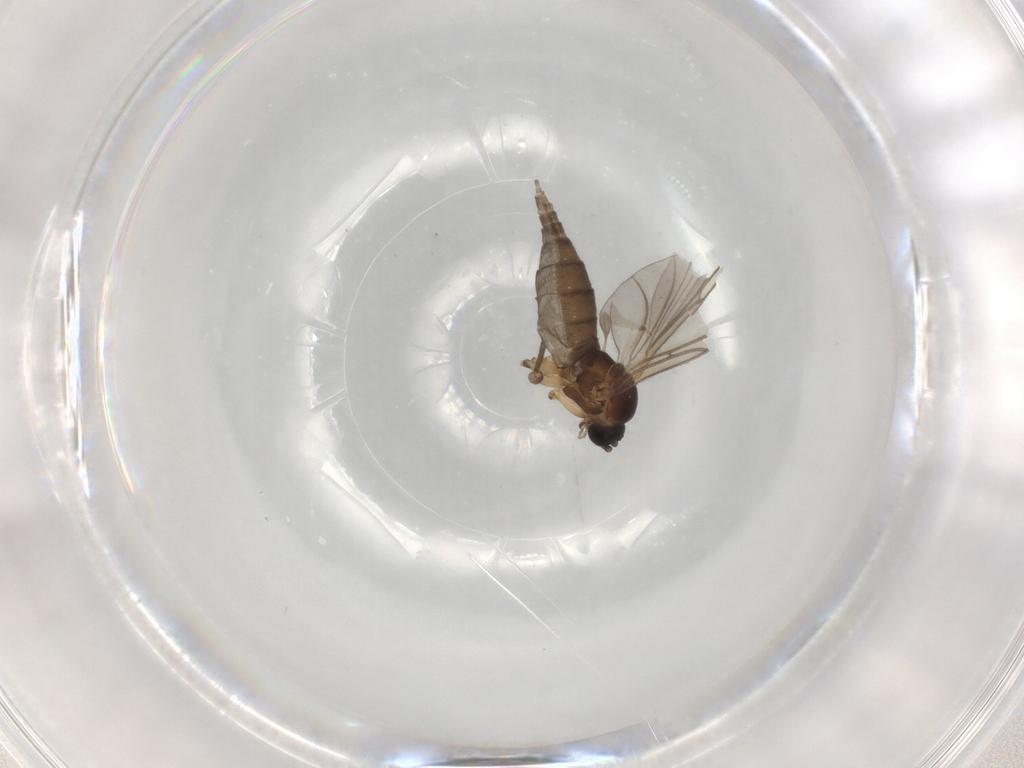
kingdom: Animalia
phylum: Arthropoda
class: Insecta
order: Diptera
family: Sciaridae
